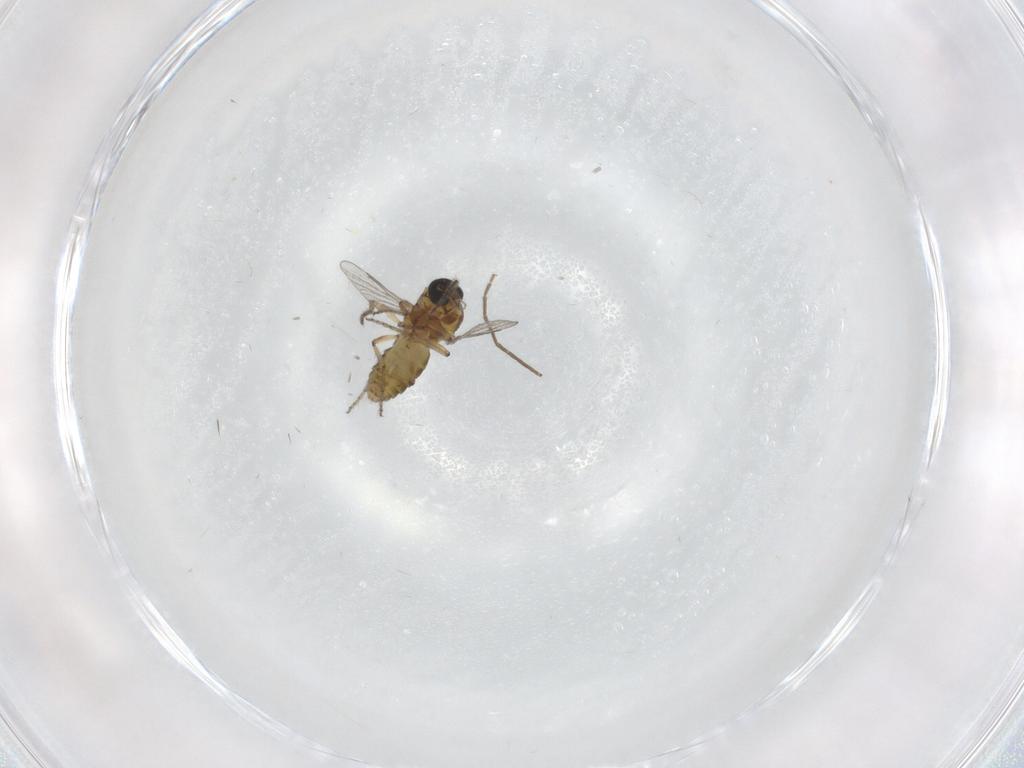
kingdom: Animalia
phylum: Arthropoda
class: Insecta
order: Diptera
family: Ceratopogonidae
